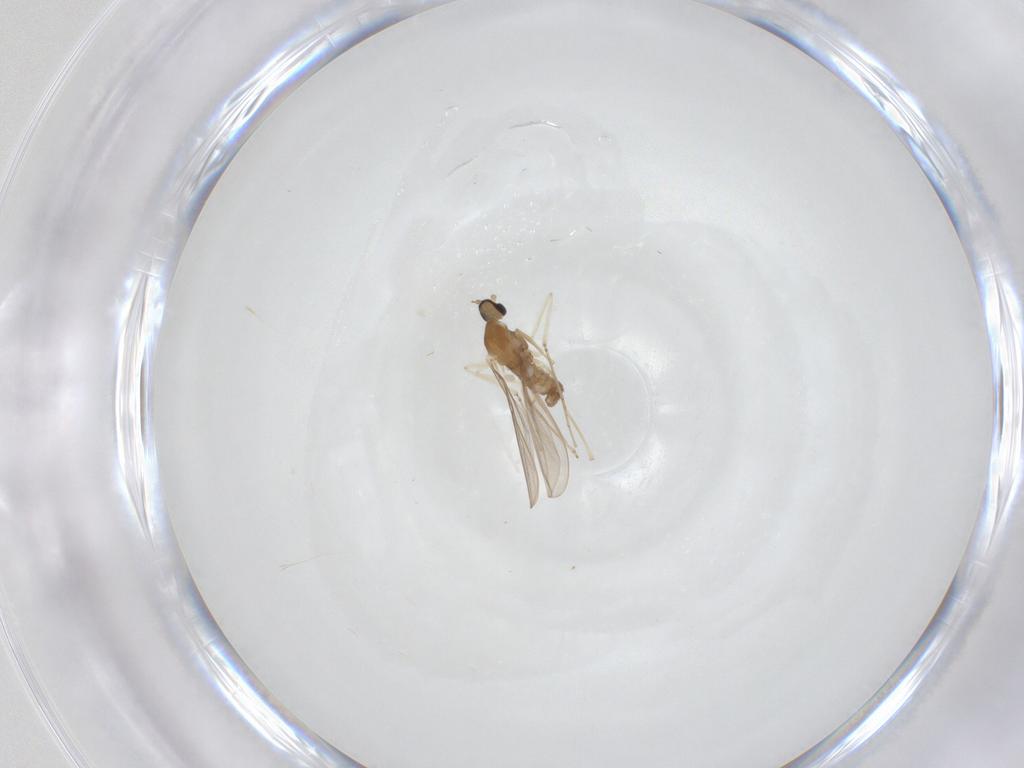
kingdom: Animalia
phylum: Arthropoda
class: Insecta
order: Diptera
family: Cecidomyiidae
